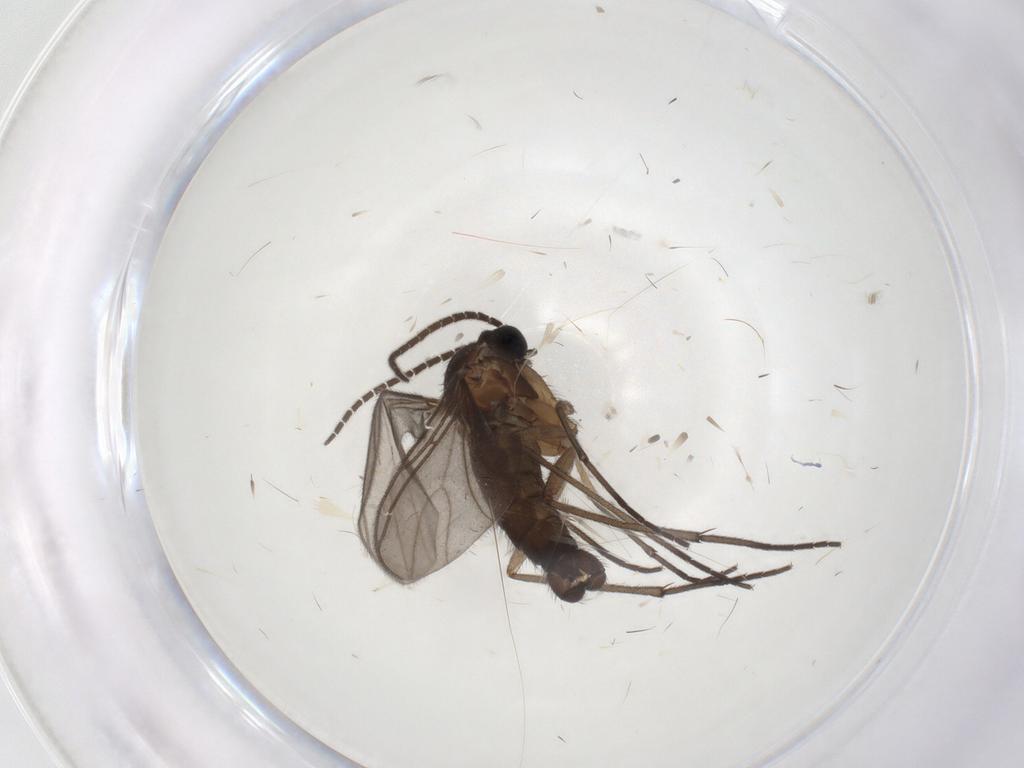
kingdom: Animalia
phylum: Arthropoda
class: Insecta
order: Diptera
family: Sciaridae
